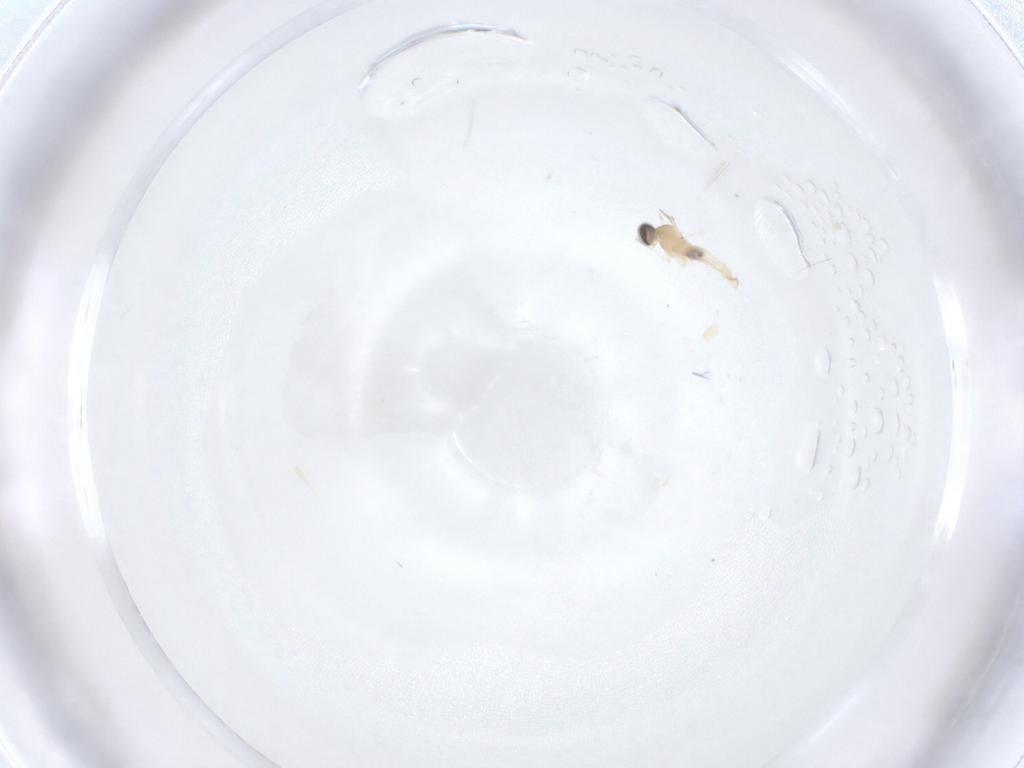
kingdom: Animalia
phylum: Arthropoda
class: Insecta
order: Diptera
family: Cecidomyiidae
